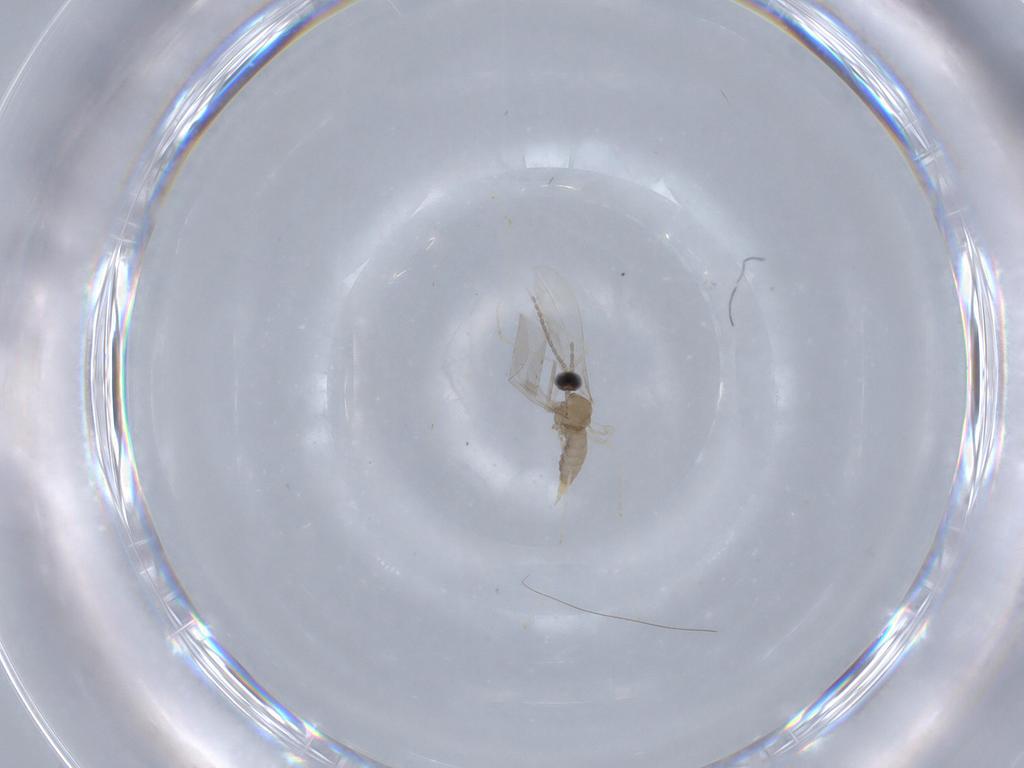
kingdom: Animalia
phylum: Arthropoda
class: Insecta
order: Diptera
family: Cecidomyiidae
